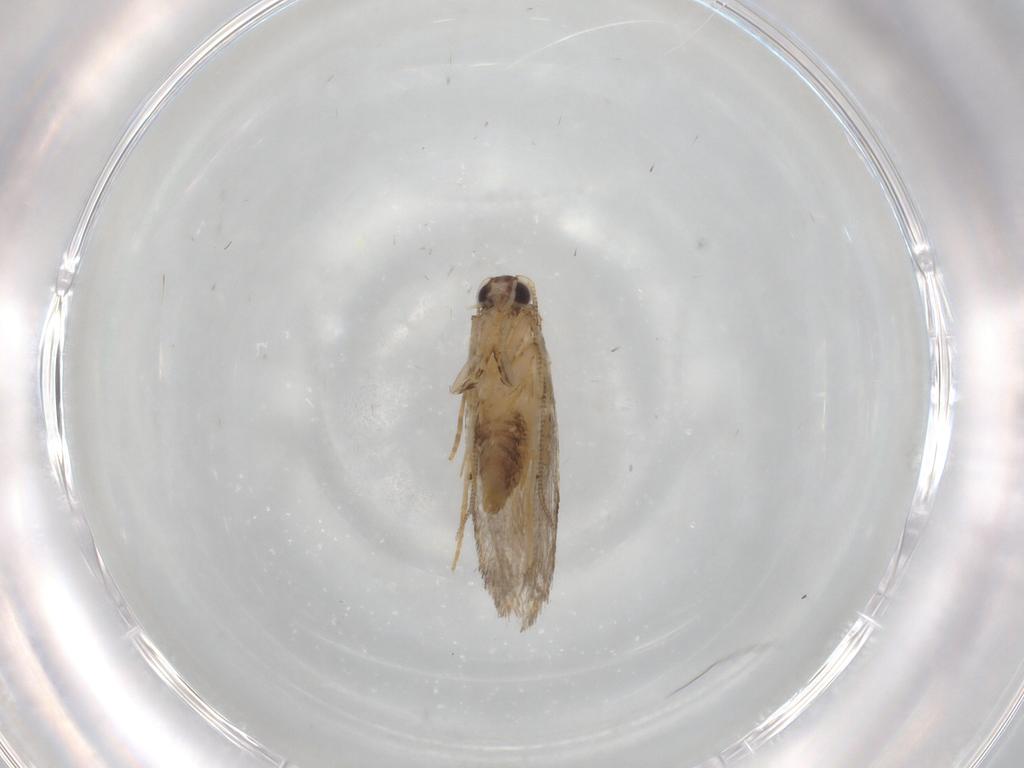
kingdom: Animalia
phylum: Arthropoda
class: Insecta
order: Lepidoptera
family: Tineidae
